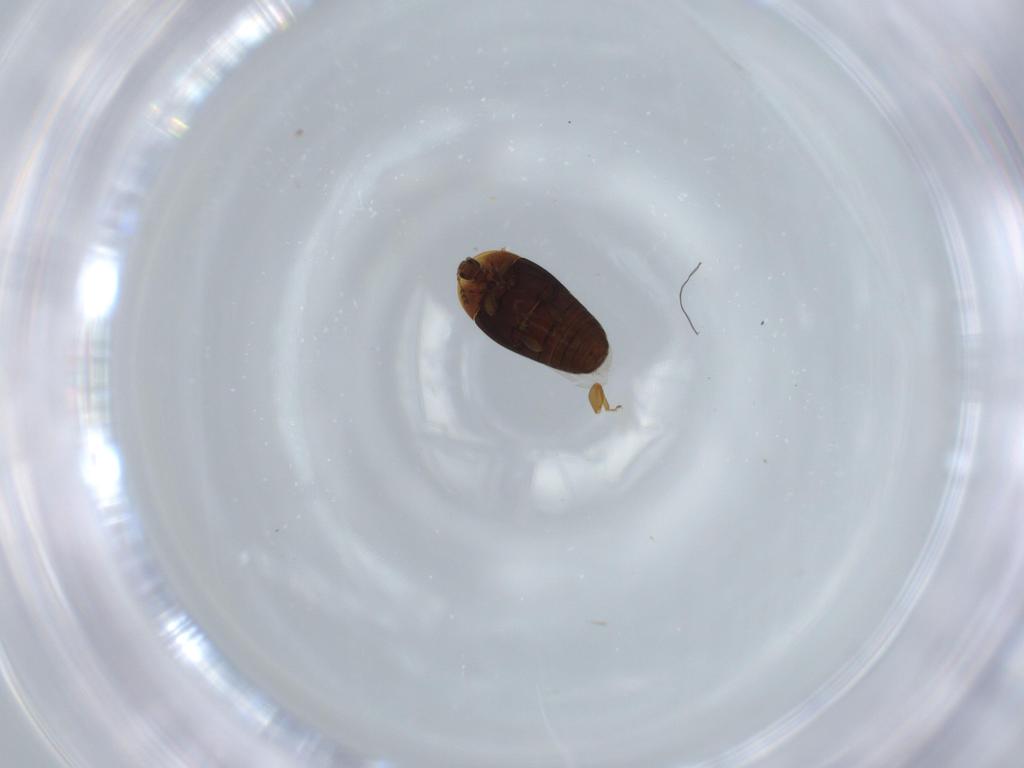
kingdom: Animalia
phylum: Arthropoda
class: Insecta
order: Coleoptera
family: Corylophidae
